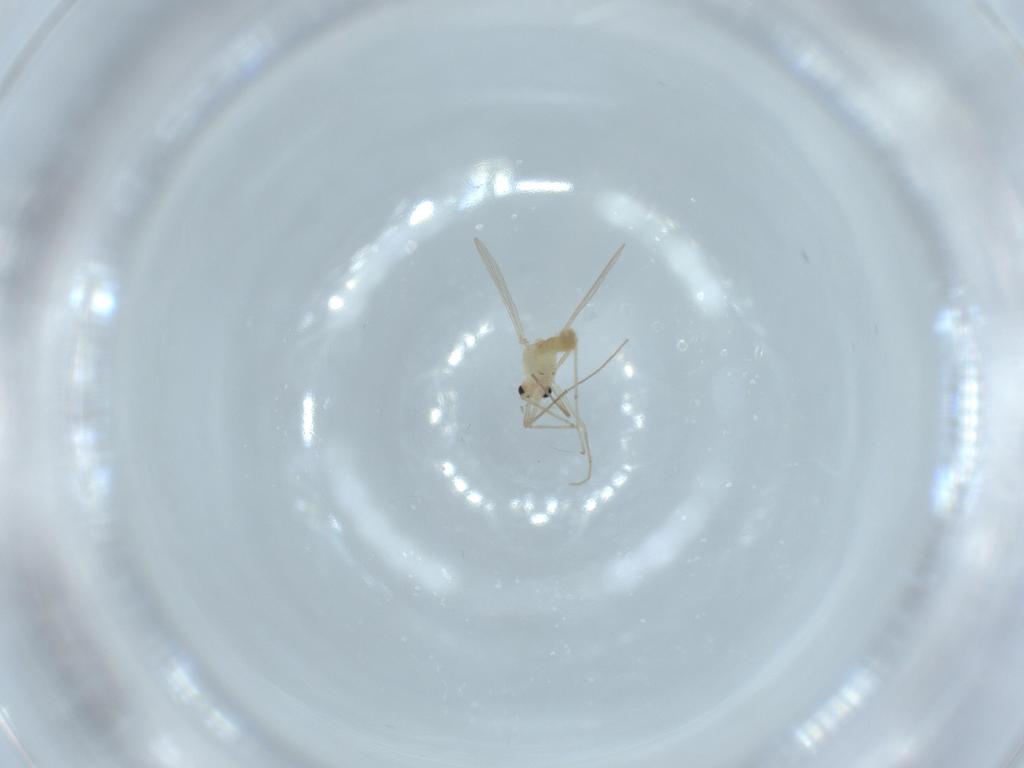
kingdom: Animalia
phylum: Arthropoda
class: Insecta
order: Diptera
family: Chironomidae
